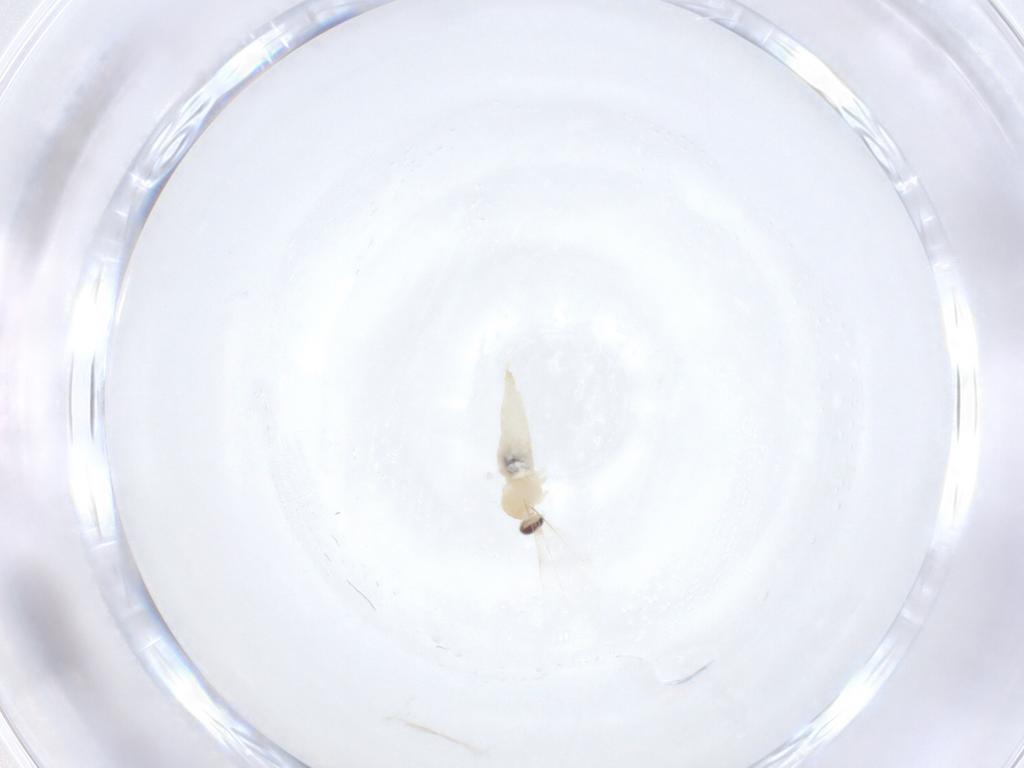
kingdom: Animalia
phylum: Arthropoda
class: Insecta
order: Diptera
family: Cecidomyiidae
